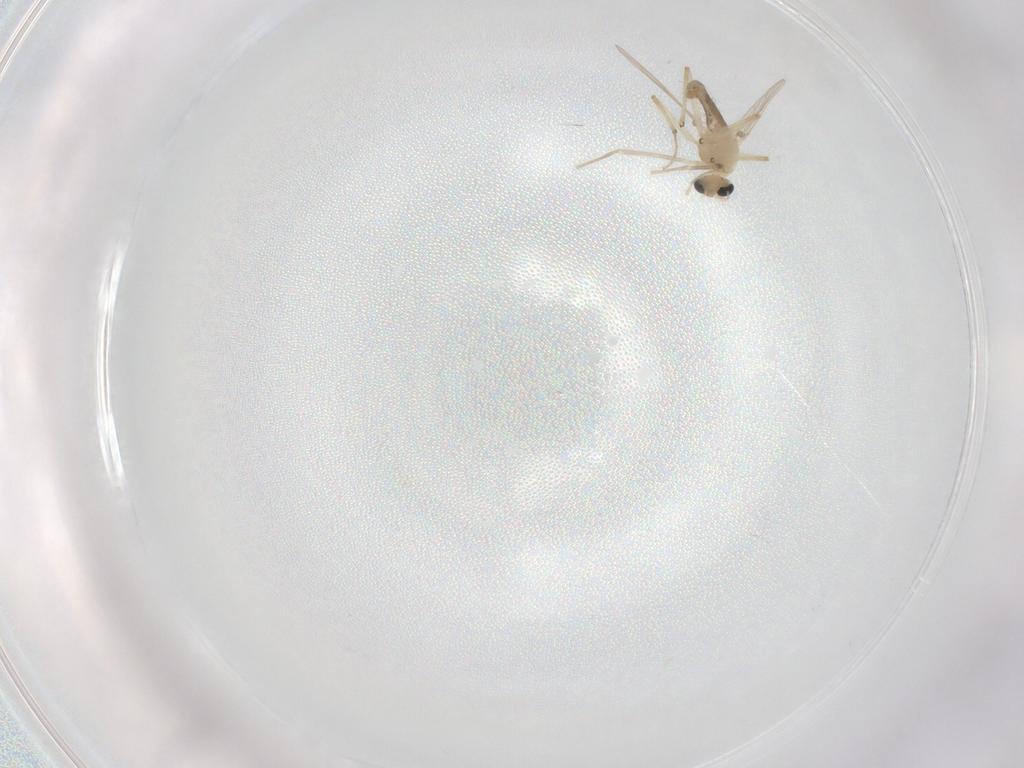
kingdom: Animalia
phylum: Arthropoda
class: Insecta
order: Diptera
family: Chironomidae
